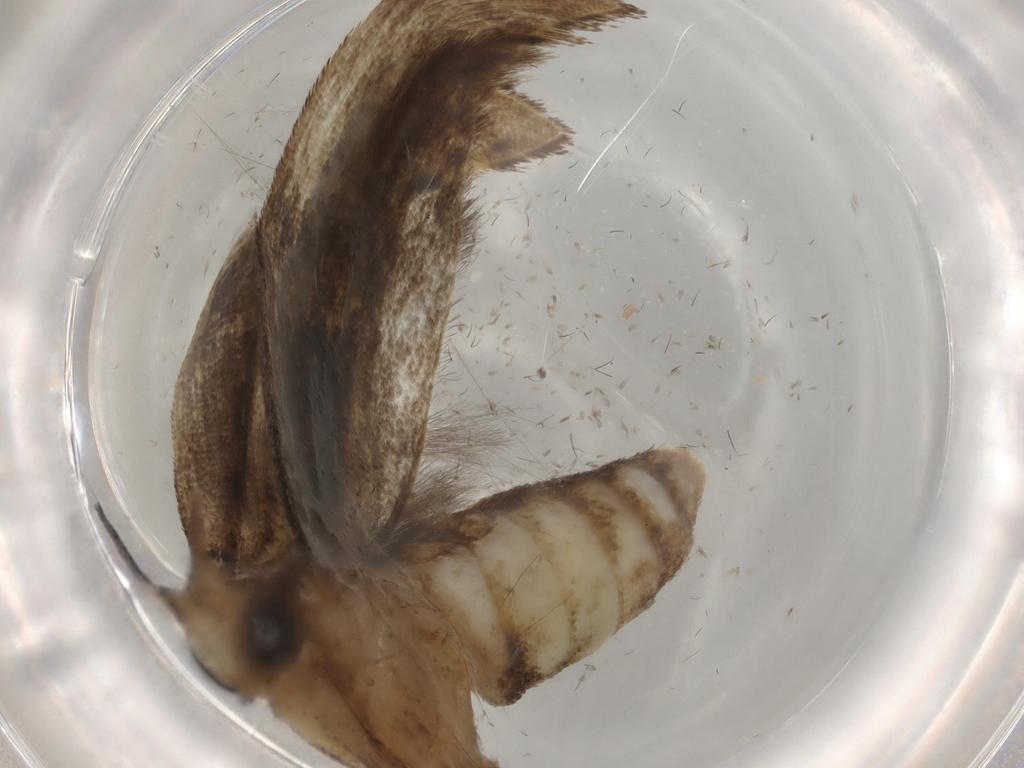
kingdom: Animalia
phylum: Arthropoda
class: Insecta
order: Lepidoptera
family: Yponomeutidae
